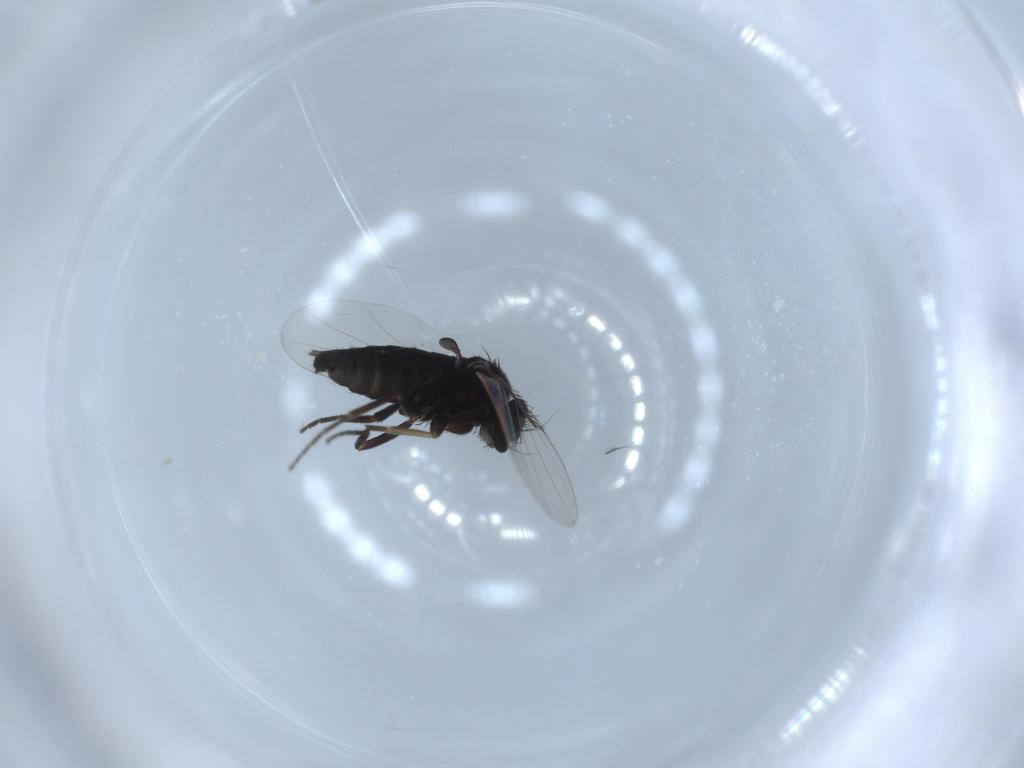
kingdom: Animalia
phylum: Arthropoda
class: Insecta
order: Diptera
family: Phoridae
